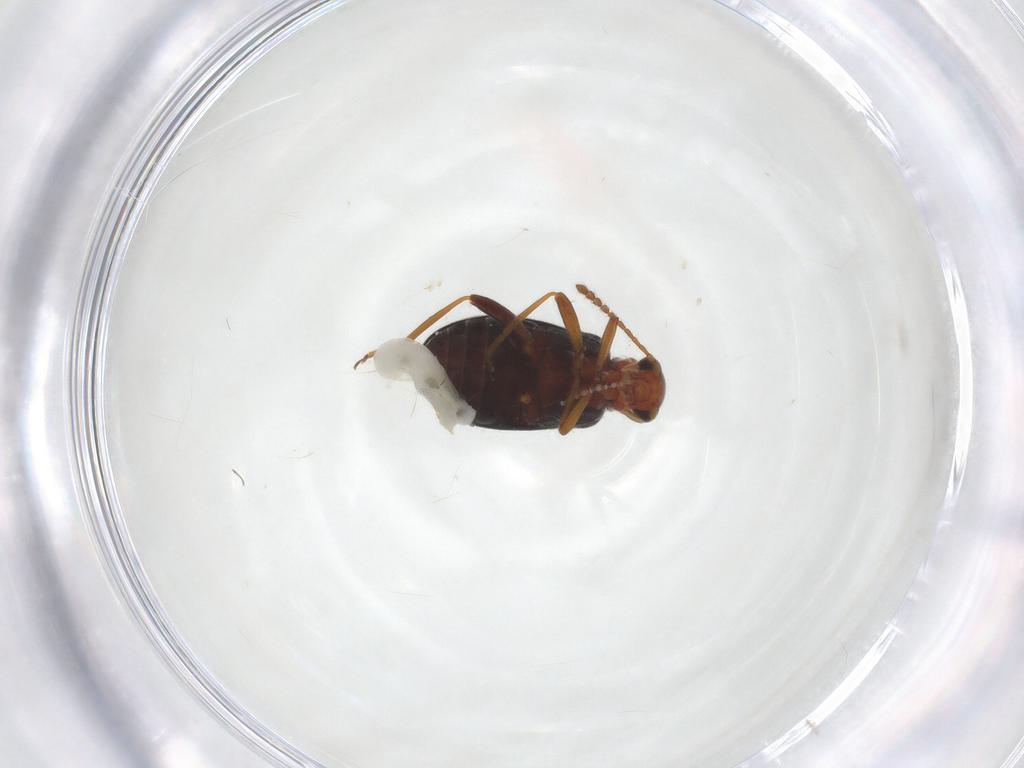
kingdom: Animalia
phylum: Arthropoda
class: Insecta
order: Coleoptera
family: Aderidae
